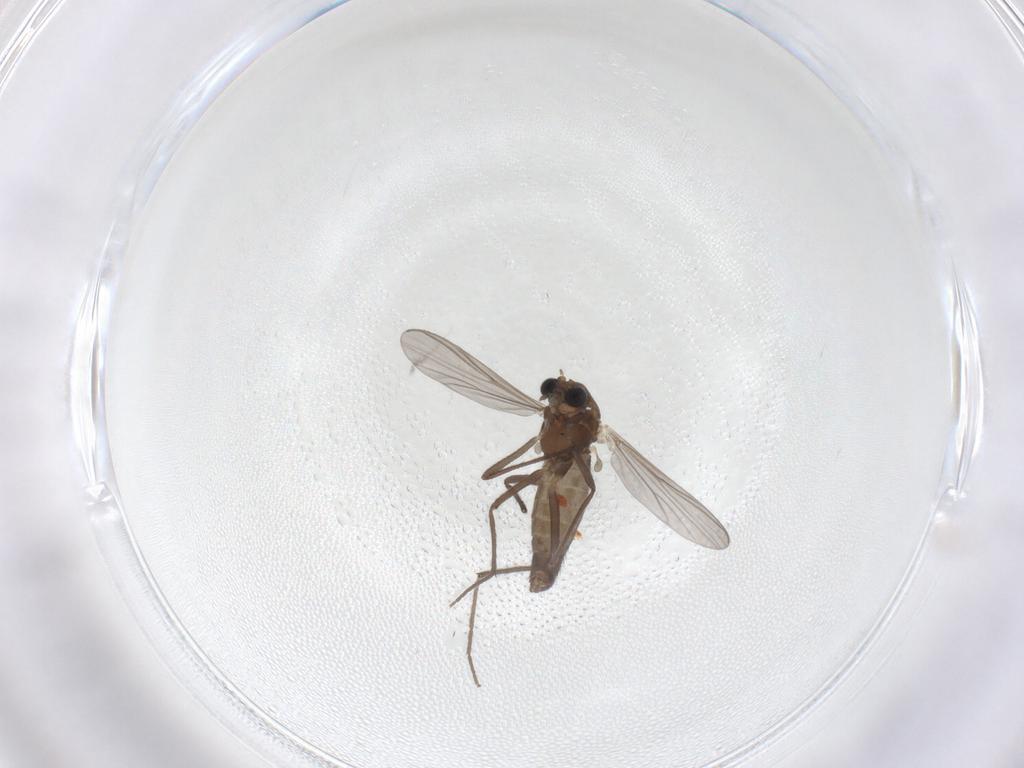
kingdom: Animalia
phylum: Arthropoda
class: Insecta
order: Diptera
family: Chironomidae
